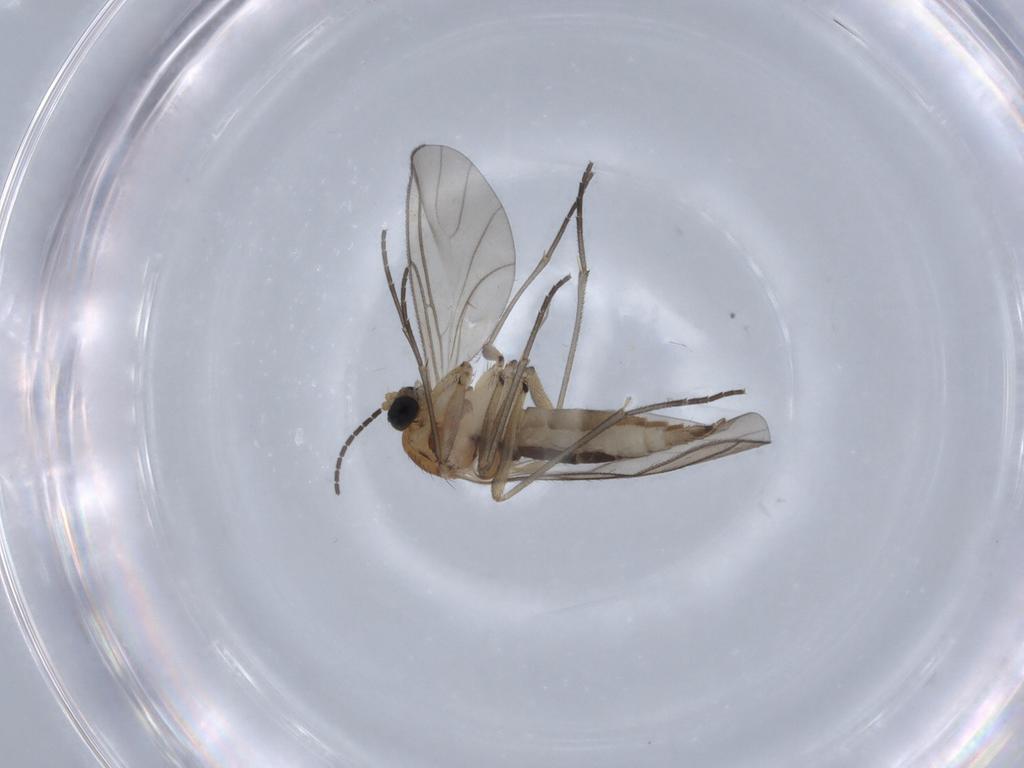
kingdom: Animalia
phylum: Arthropoda
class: Insecta
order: Diptera
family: Sciaridae
